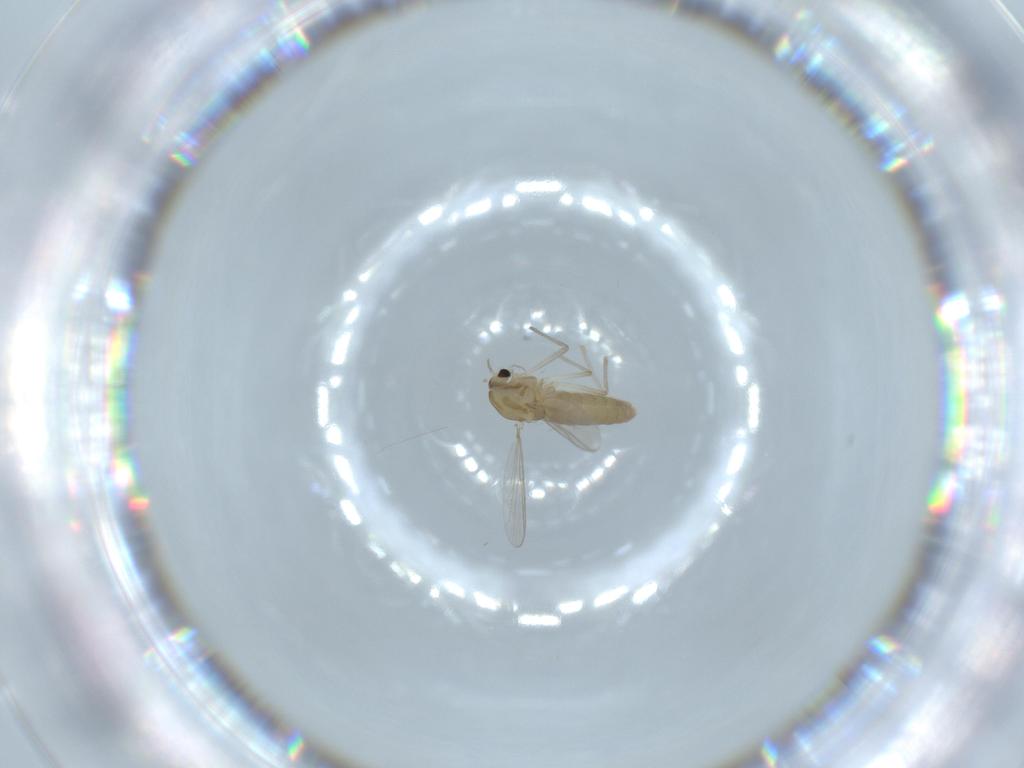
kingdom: Animalia
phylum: Arthropoda
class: Insecta
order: Diptera
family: Chironomidae
